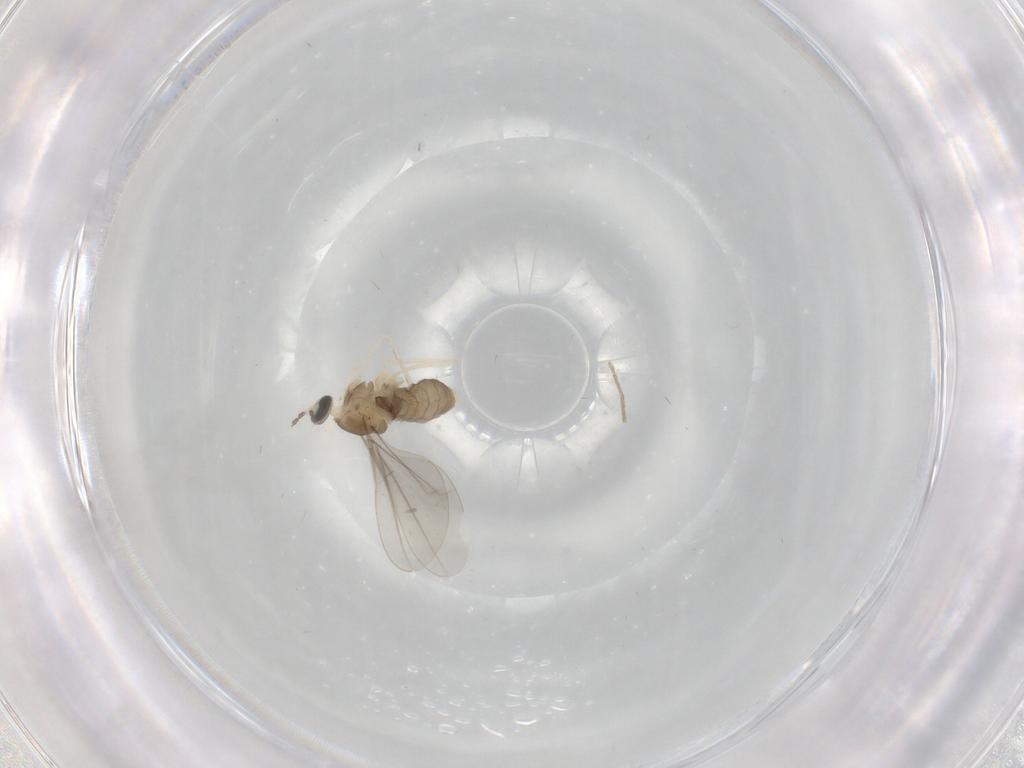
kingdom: Animalia
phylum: Arthropoda
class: Insecta
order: Diptera
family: Cecidomyiidae
